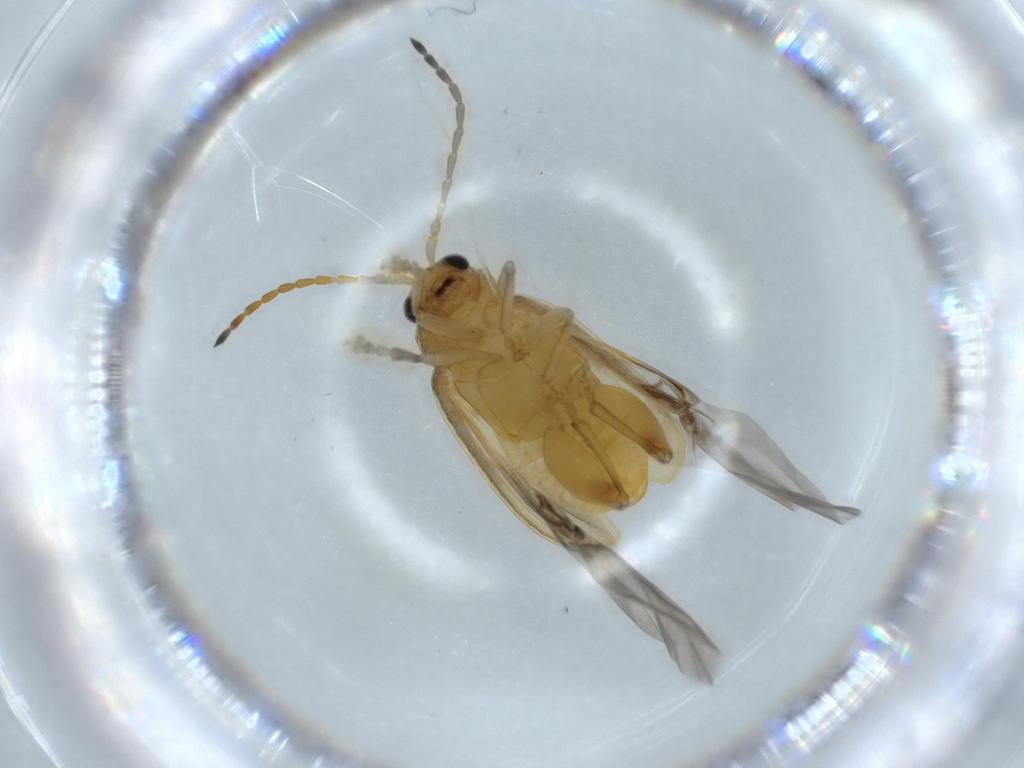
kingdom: Animalia
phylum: Arthropoda
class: Insecta
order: Coleoptera
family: Chrysomelidae
